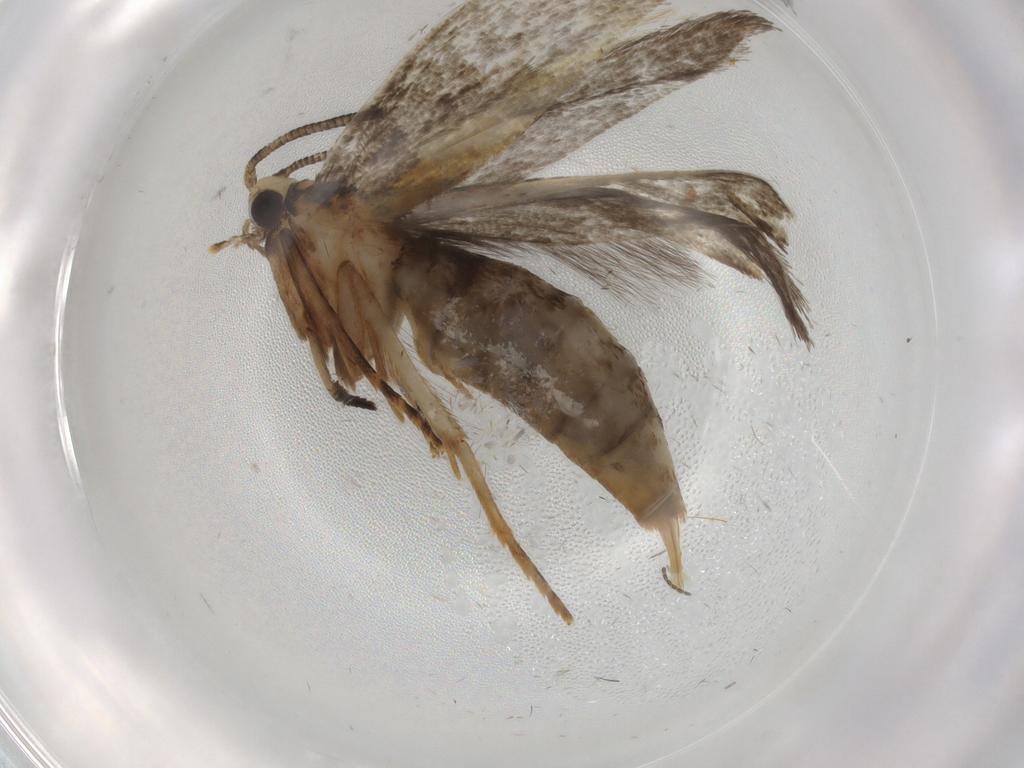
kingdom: Animalia
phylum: Arthropoda
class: Insecta
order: Lepidoptera
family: Tineidae
